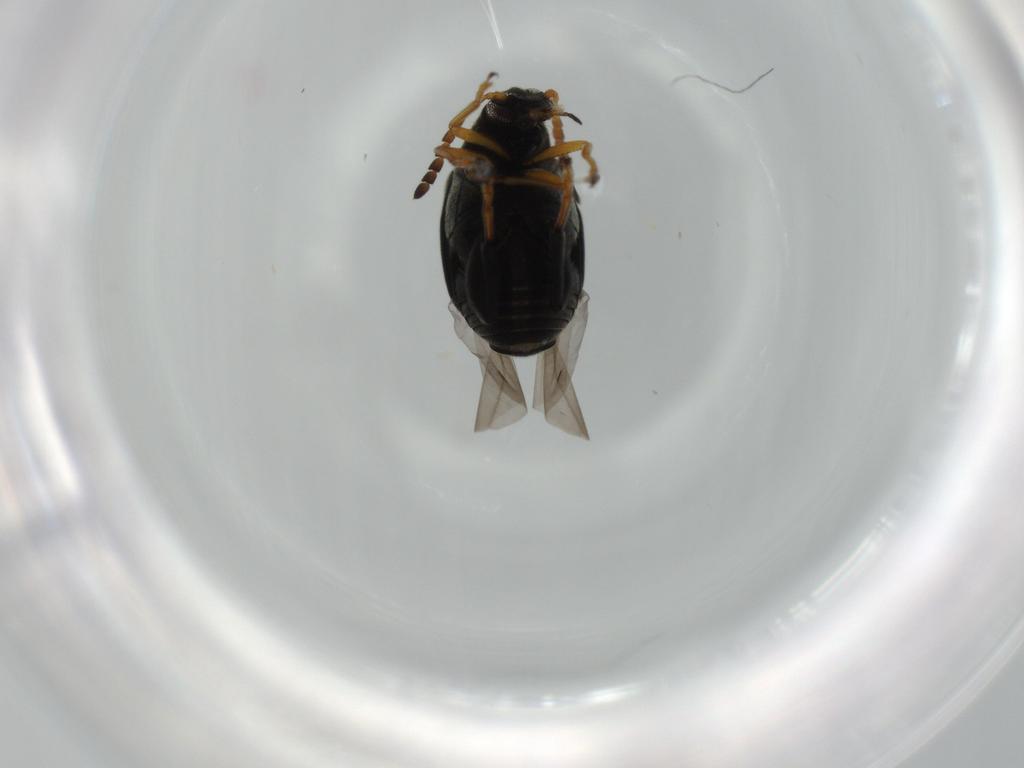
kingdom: Animalia
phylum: Arthropoda
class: Insecta
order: Coleoptera
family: Chrysomelidae
